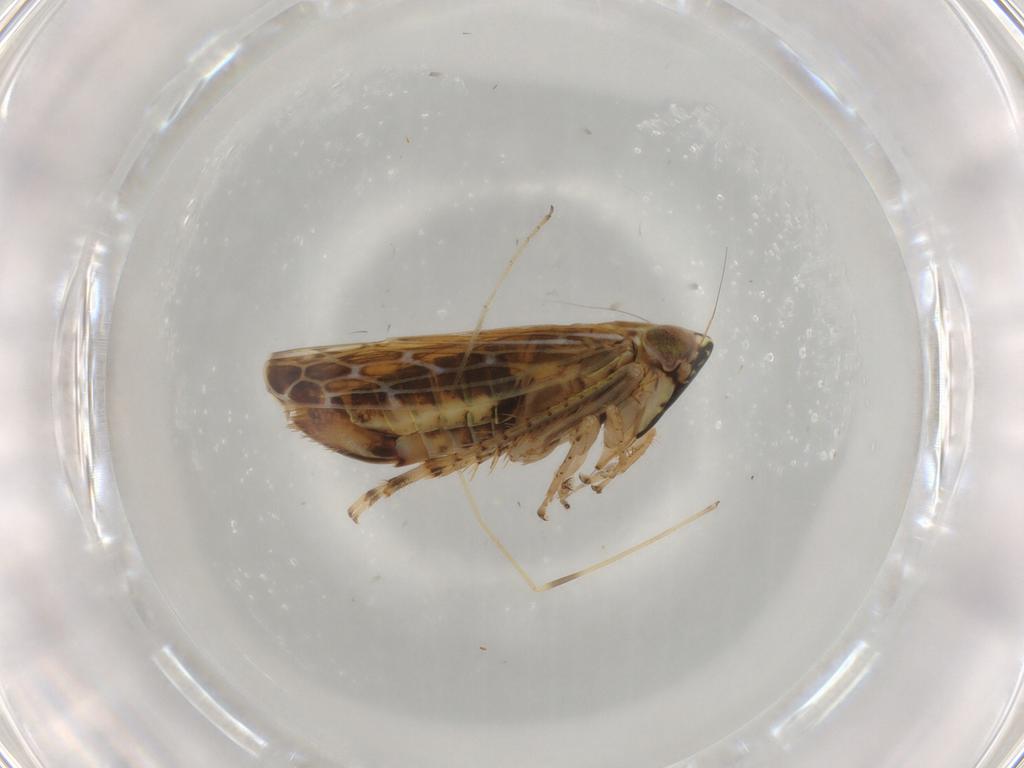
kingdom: Animalia
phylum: Arthropoda
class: Insecta
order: Hemiptera
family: Cicadellidae
